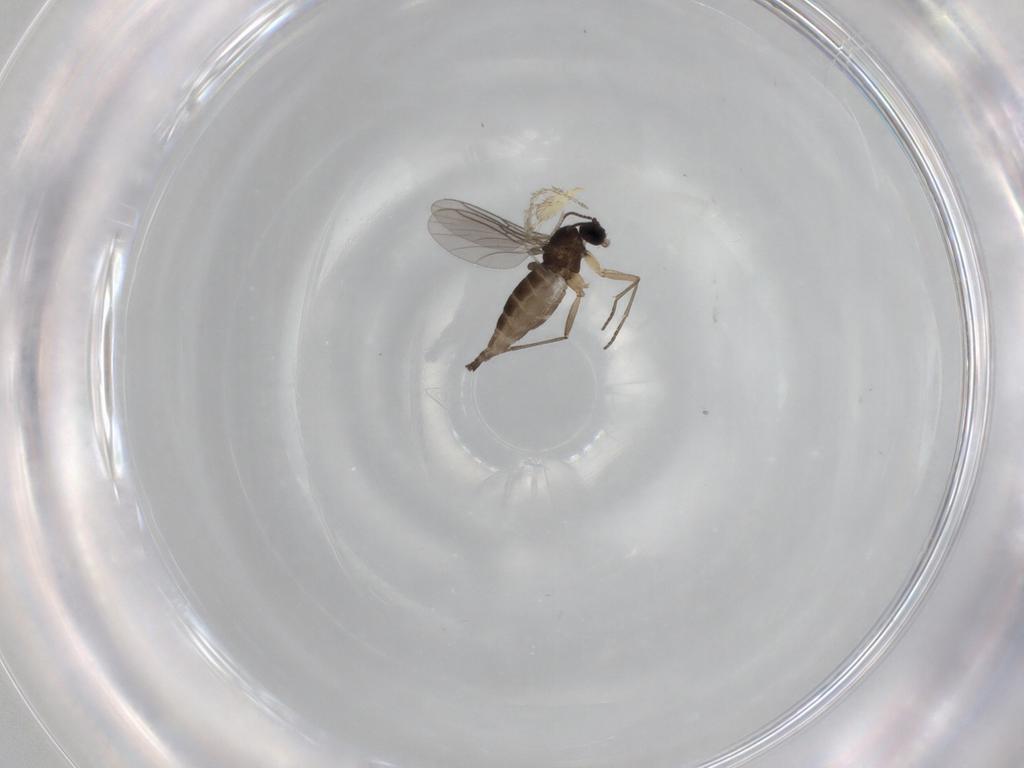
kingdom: Animalia
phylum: Arthropoda
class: Insecta
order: Diptera
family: Sciaridae
